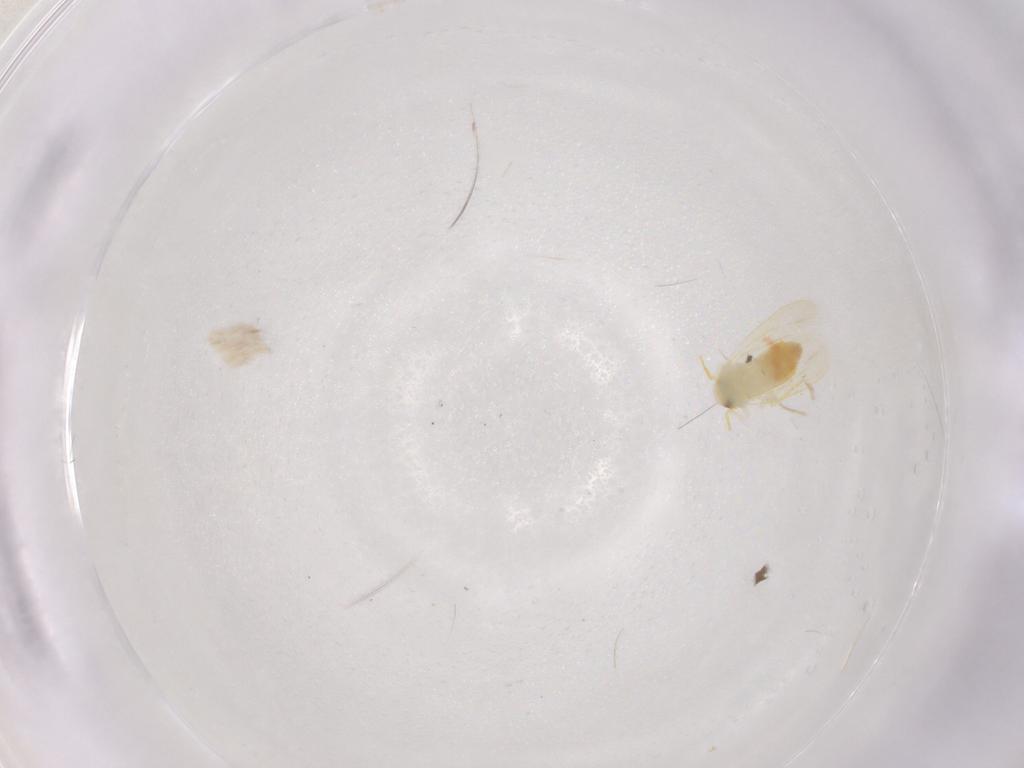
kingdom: Animalia
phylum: Arthropoda
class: Insecta
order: Hemiptera
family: Aleyrodidae
